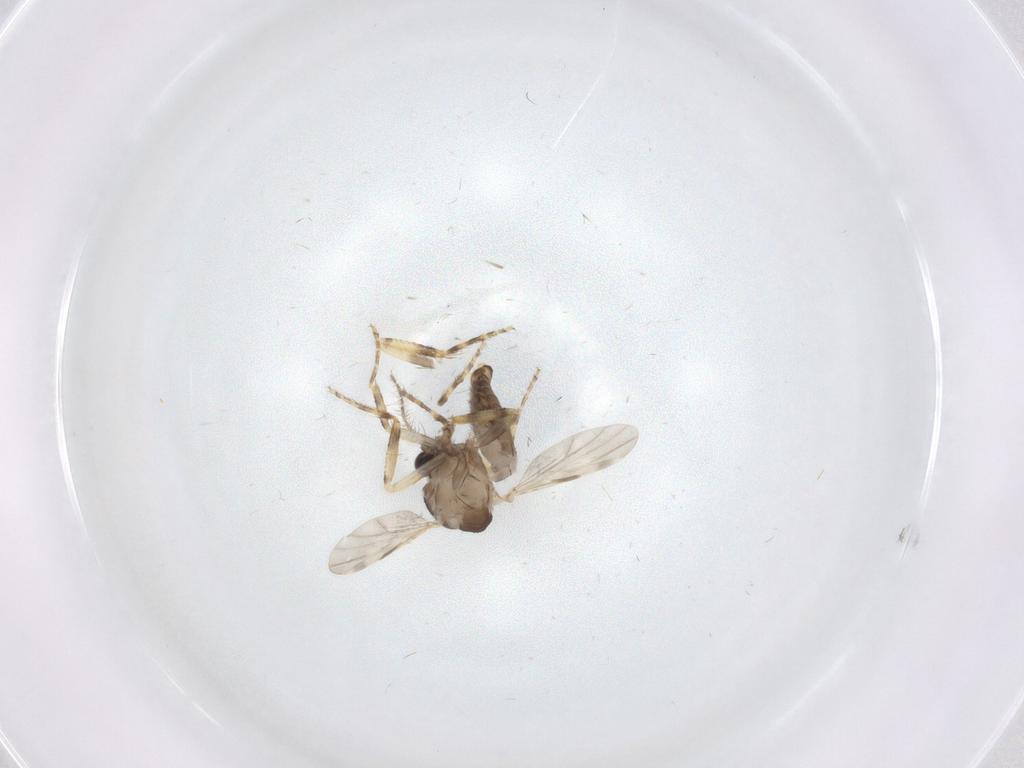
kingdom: Animalia
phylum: Arthropoda
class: Insecta
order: Diptera
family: Ceratopogonidae
